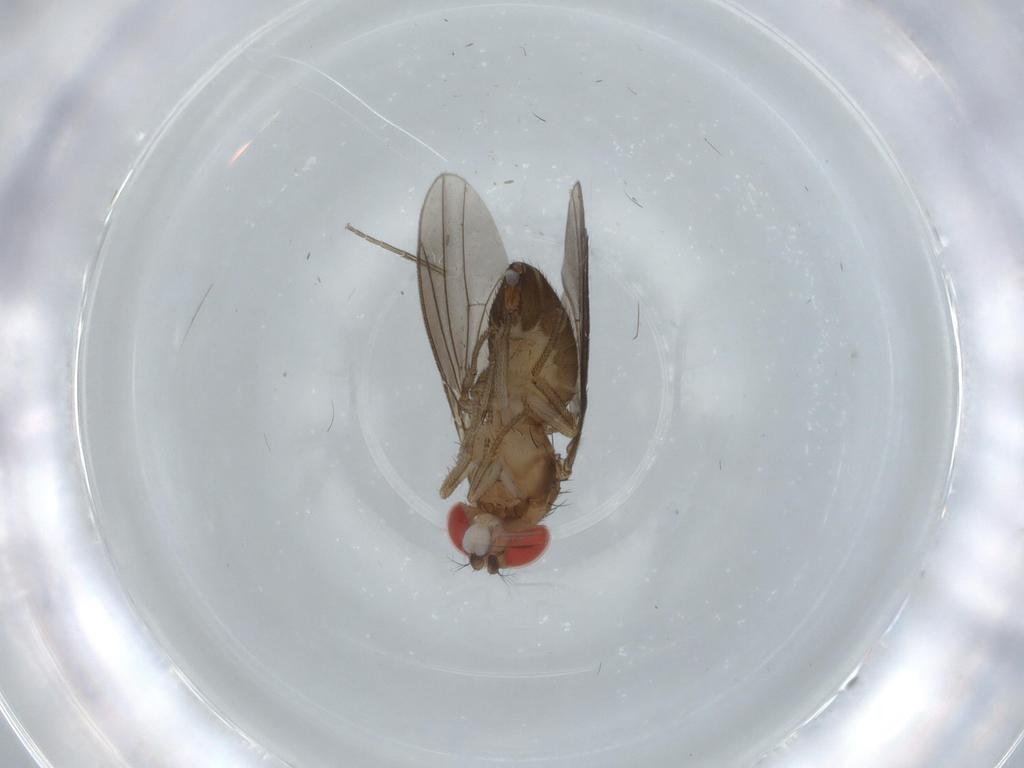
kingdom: Animalia
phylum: Arthropoda
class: Insecta
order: Diptera
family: Drosophilidae
